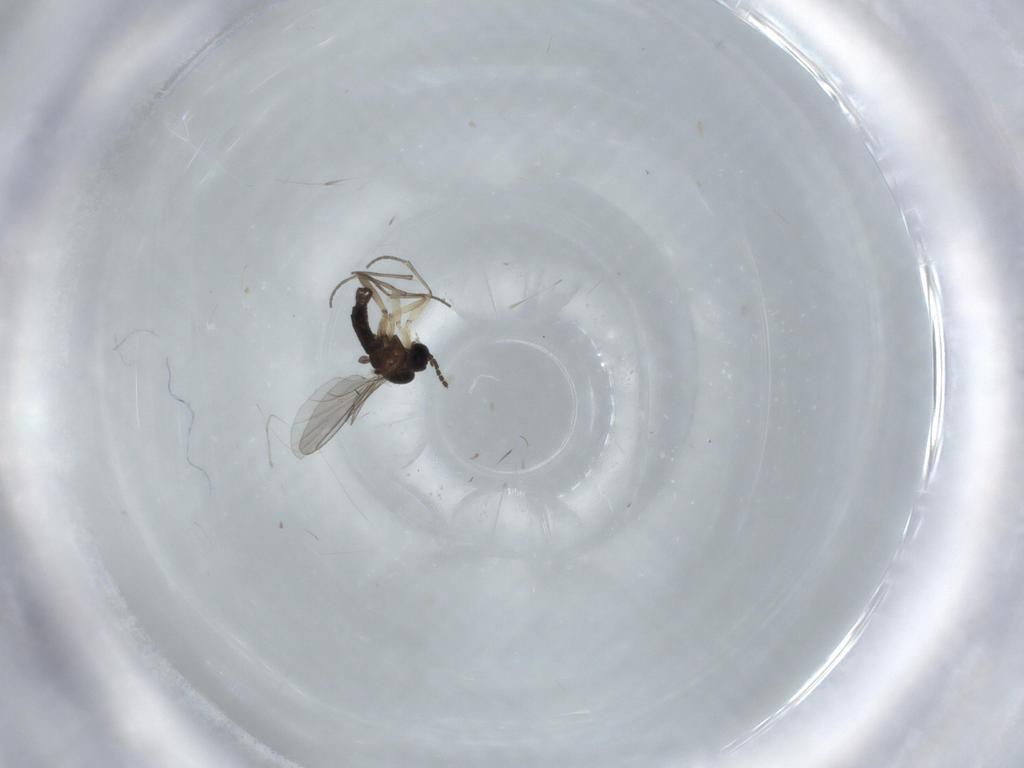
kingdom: Animalia
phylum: Arthropoda
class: Insecta
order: Diptera
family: Sciaridae
